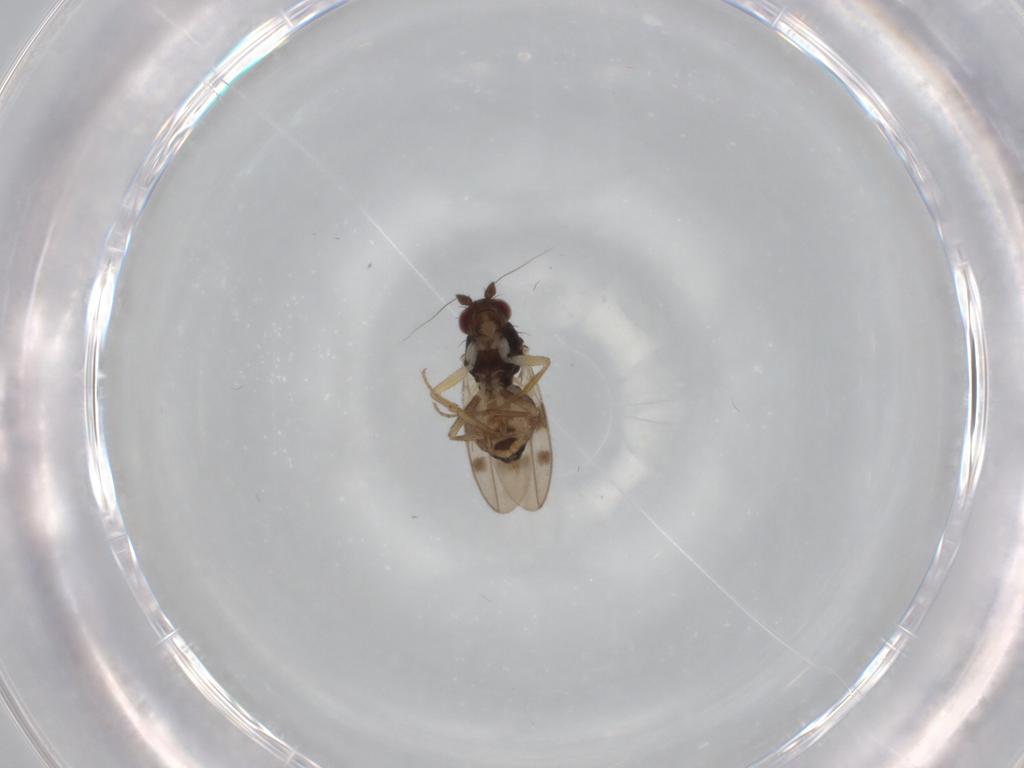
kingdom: Animalia
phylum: Arthropoda
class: Insecta
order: Diptera
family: Sphaeroceridae
